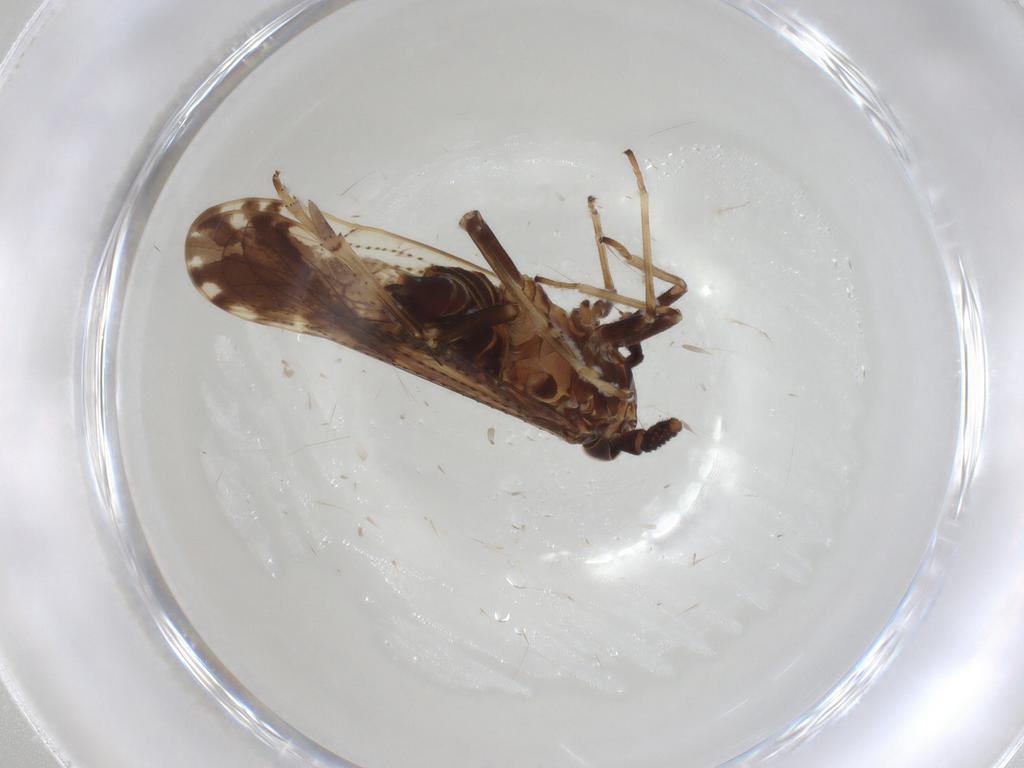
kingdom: Animalia
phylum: Arthropoda
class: Insecta
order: Hemiptera
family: Delphacidae
